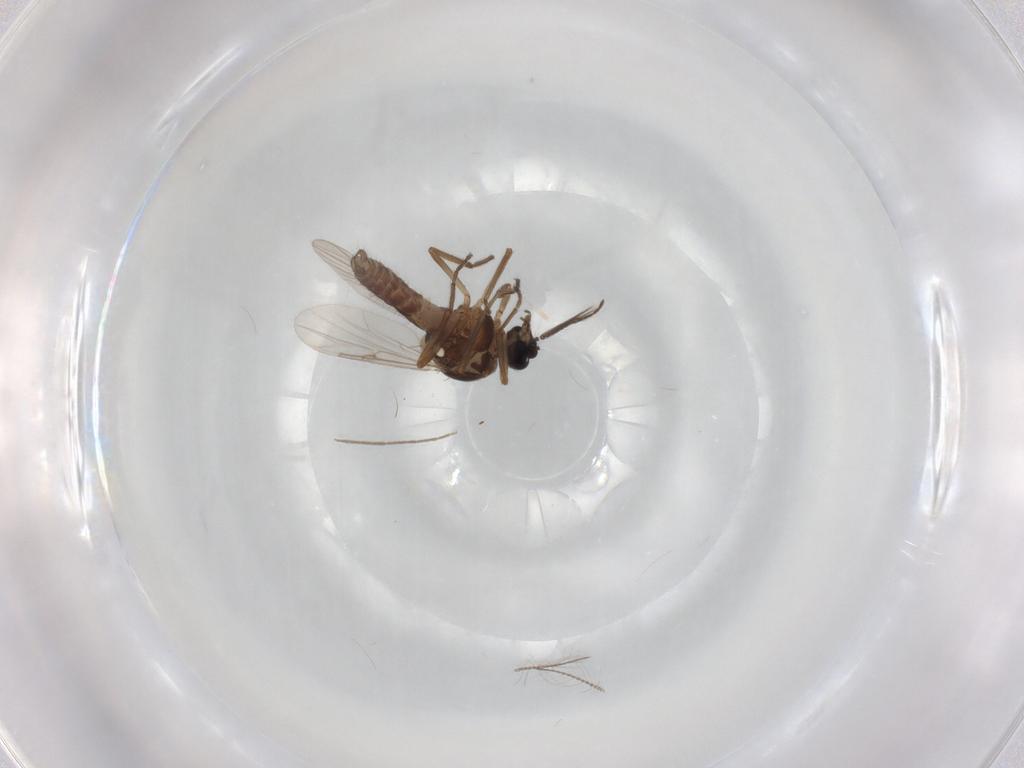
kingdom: Animalia
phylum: Arthropoda
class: Insecta
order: Diptera
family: Ceratopogonidae
